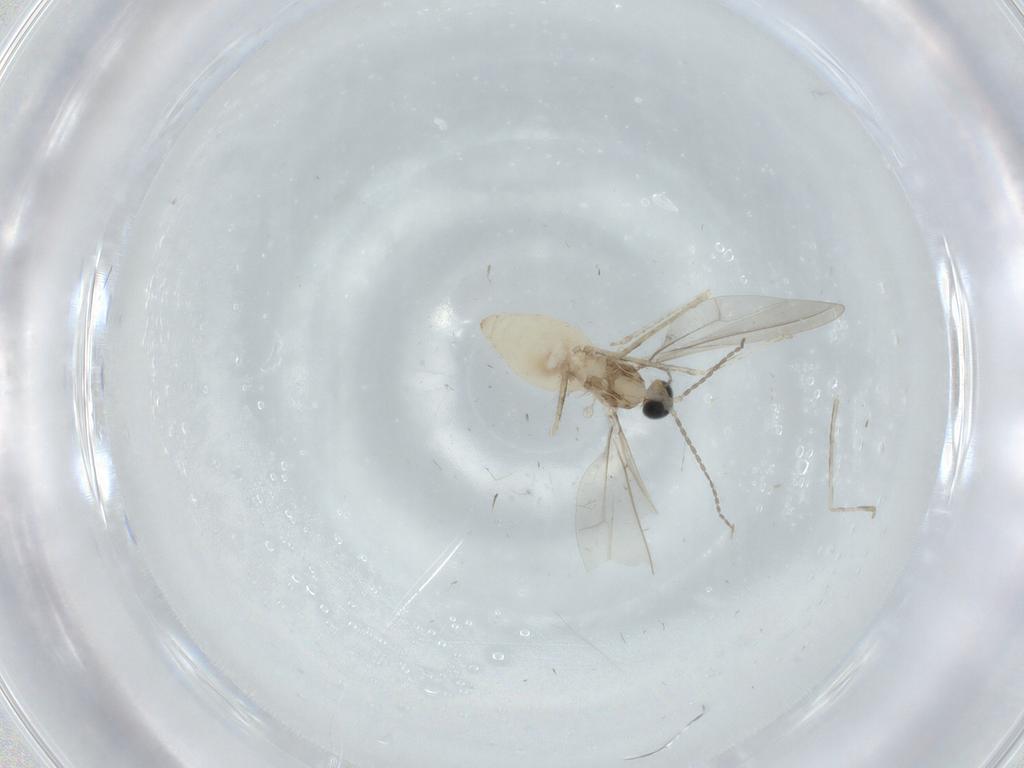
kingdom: Animalia
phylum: Arthropoda
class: Insecta
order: Diptera
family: Cecidomyiidae
